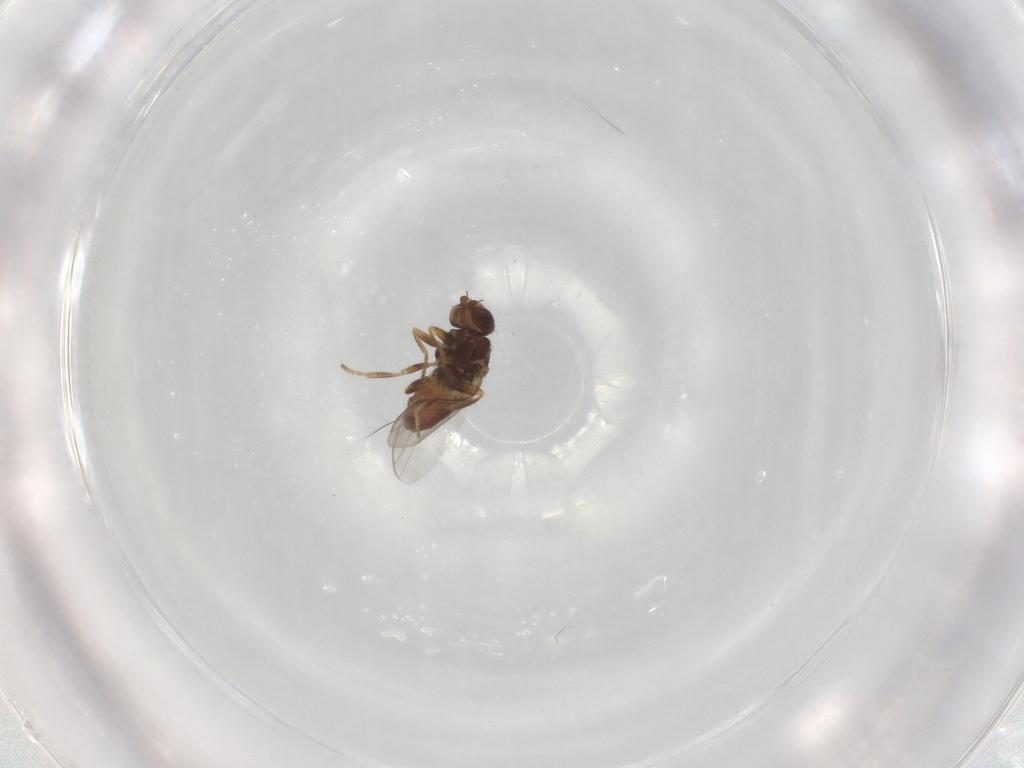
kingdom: Animalia
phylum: Arthropoda
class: Insecta
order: Diptera
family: Chloropidae
